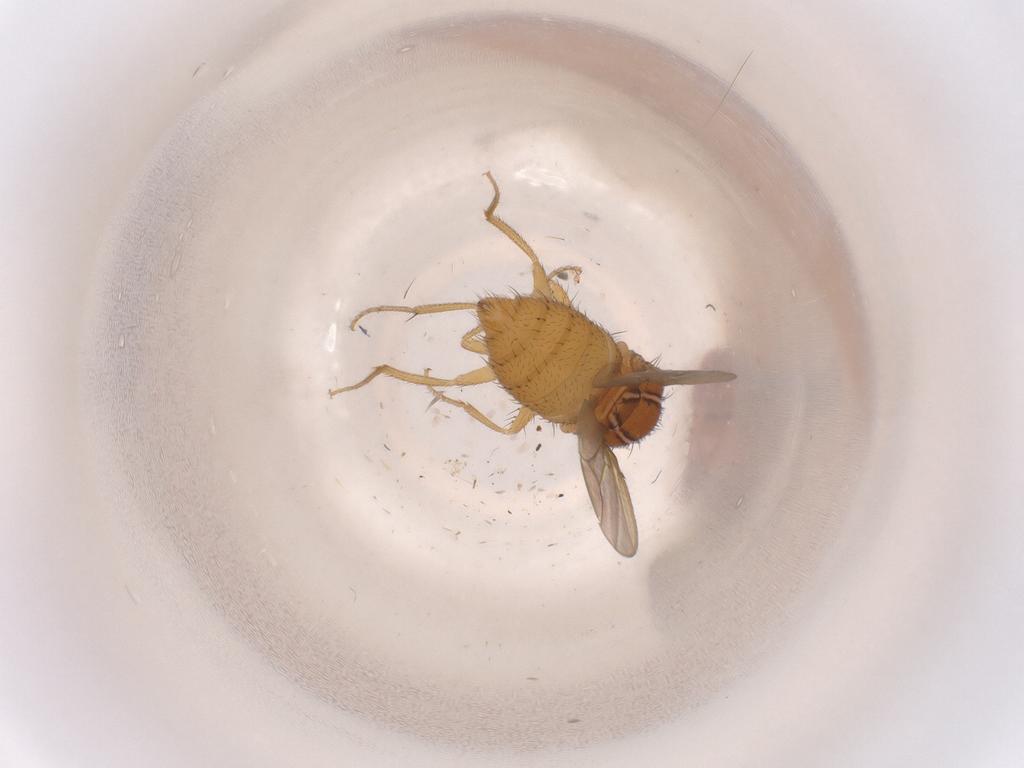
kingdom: Animalia
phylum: Arthropoda
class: Insecta
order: Diptera
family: Drosophilidae
